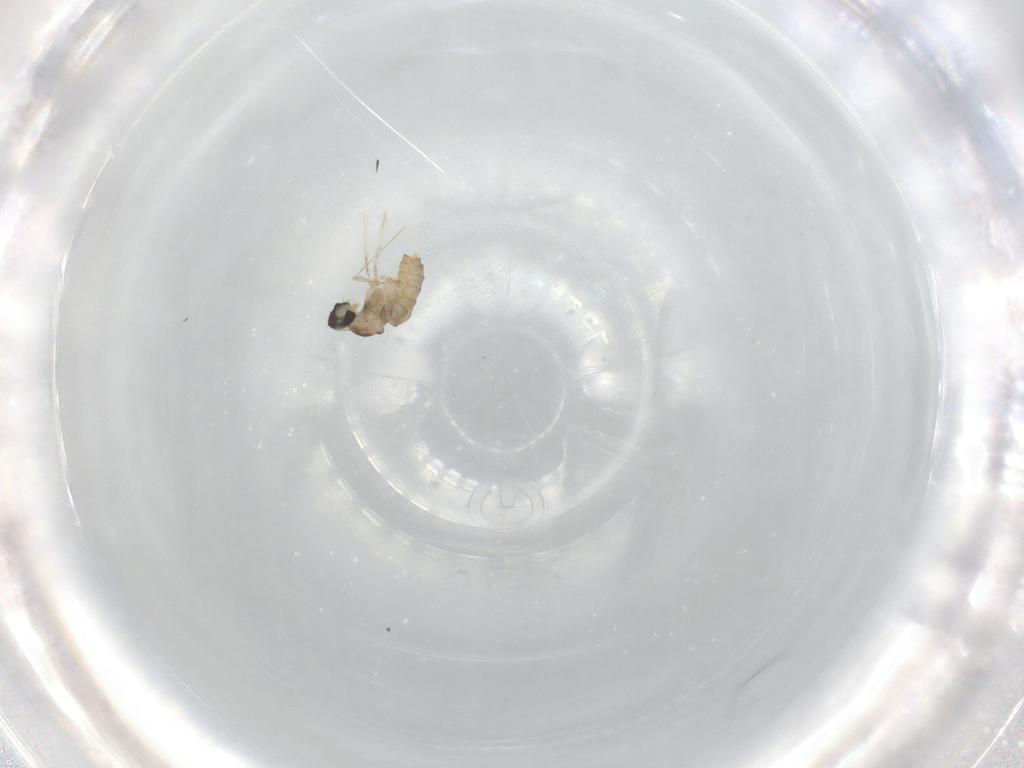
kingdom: Animalia
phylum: Arthropoda
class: Insecta
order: Diptera
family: Cecidomyiidae
